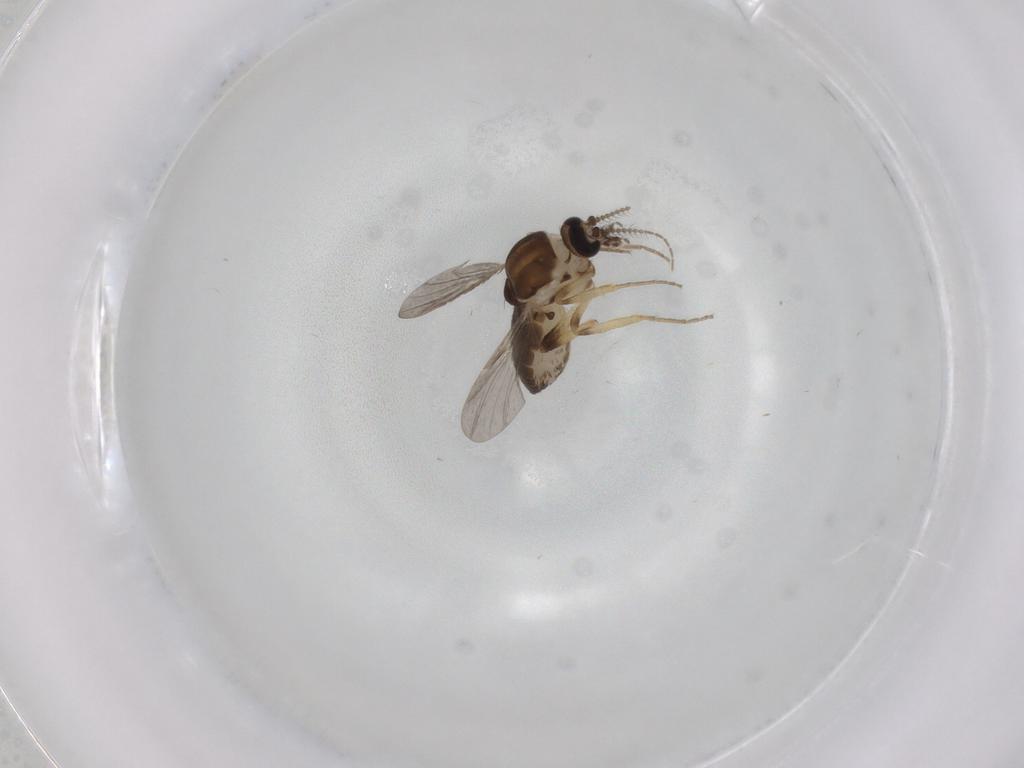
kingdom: Animalia
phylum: Arthropoda
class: Insecta
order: Diptera
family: Ceratopogonidae
